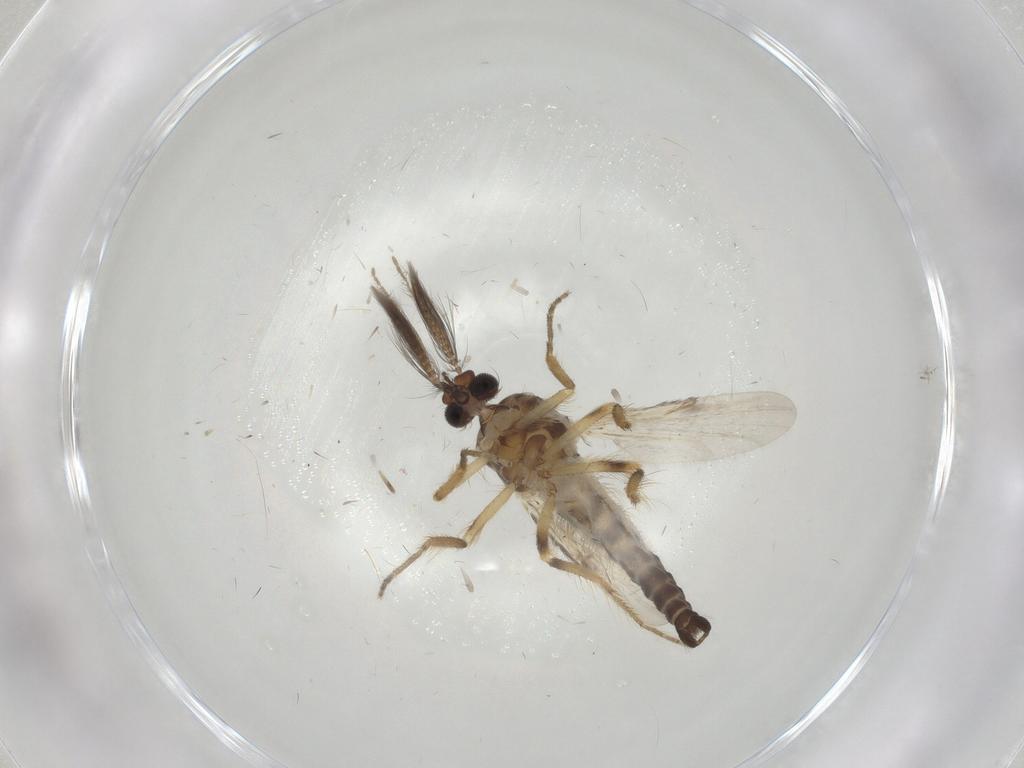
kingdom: Animalia
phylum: Arthropoda
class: Insecta
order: Diptera
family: Ceratopogonidae
